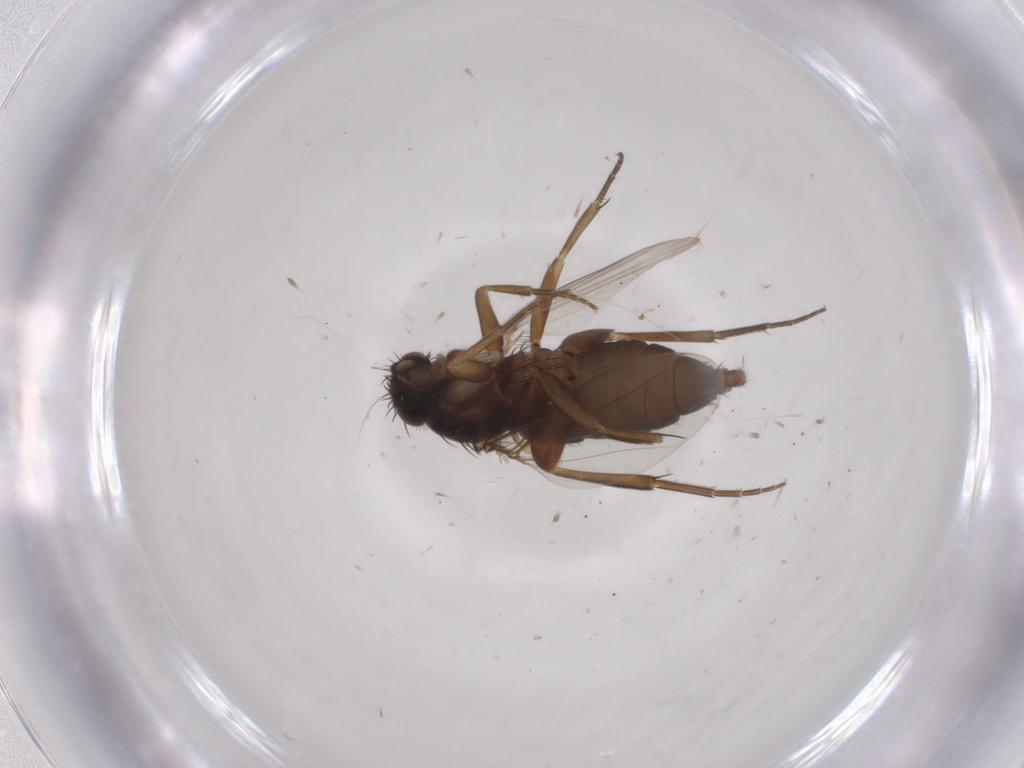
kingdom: Animalia
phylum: Arthropoda
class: Insecta
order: Diptera
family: Phoridae
